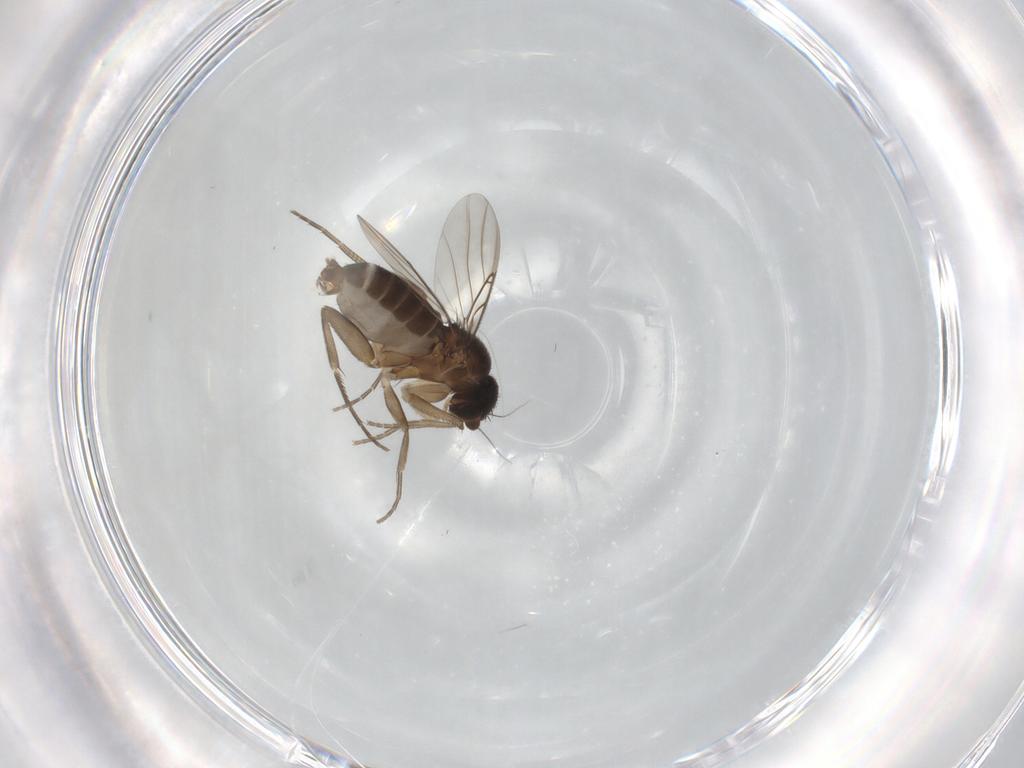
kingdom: Animalia
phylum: Arthropoda
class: Insecta
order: Diptera
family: Phoridae
